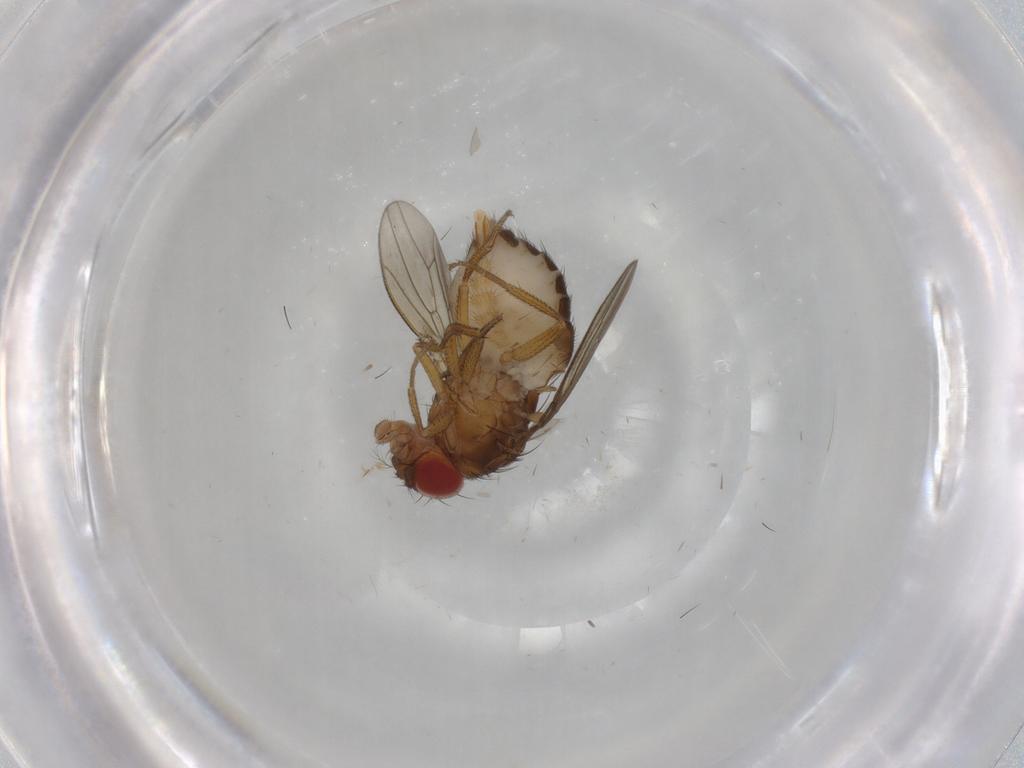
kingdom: Animalia
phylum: Arthropoda
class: Insecta
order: Diptera
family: Drosophilidae
